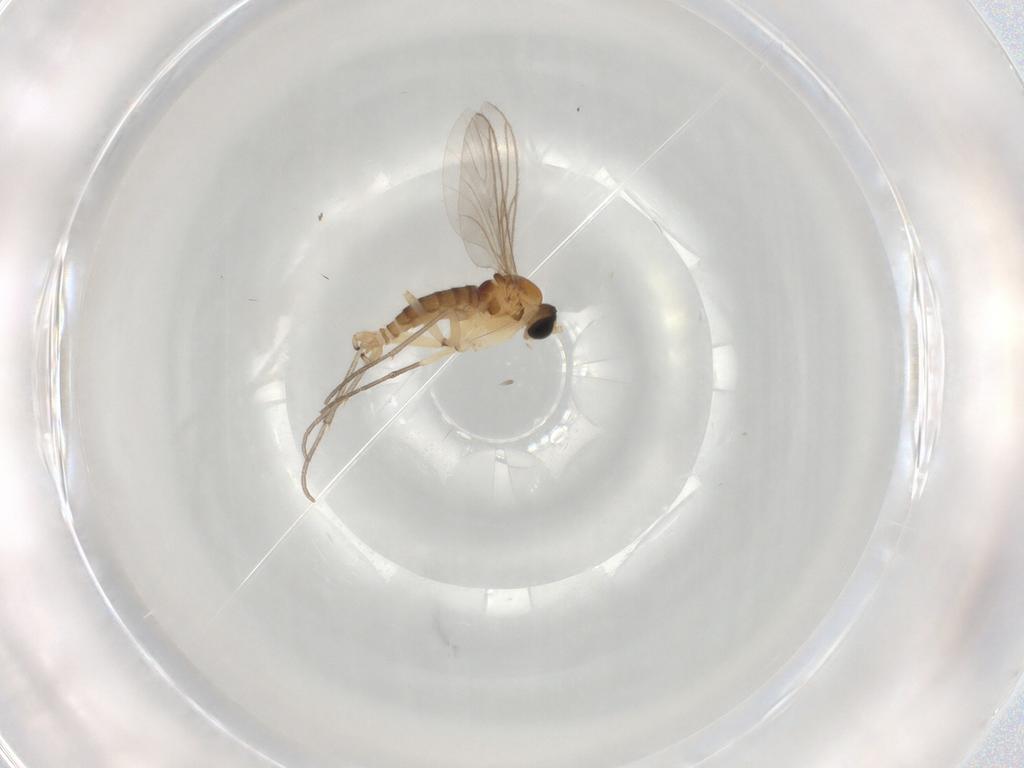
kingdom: Animalia
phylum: Arthropoda
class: Insecta
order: Diptera
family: Sciaridae
